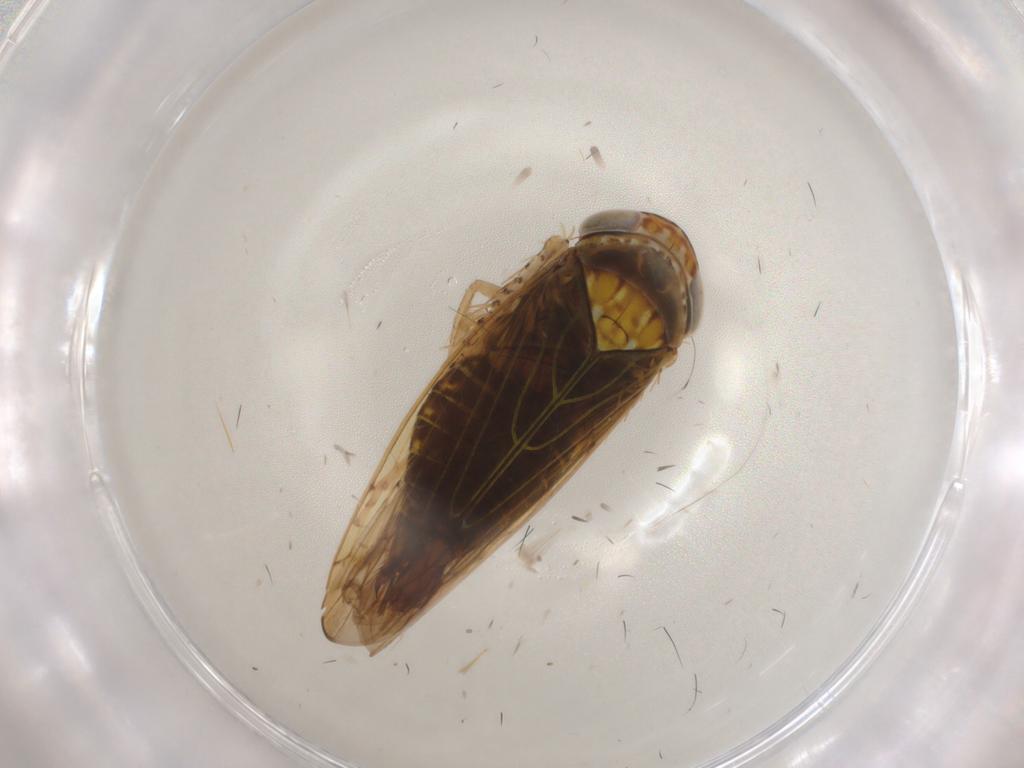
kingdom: Animalia
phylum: Arthropoda
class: Insecta
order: Hemiptera
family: Cicadellidae
